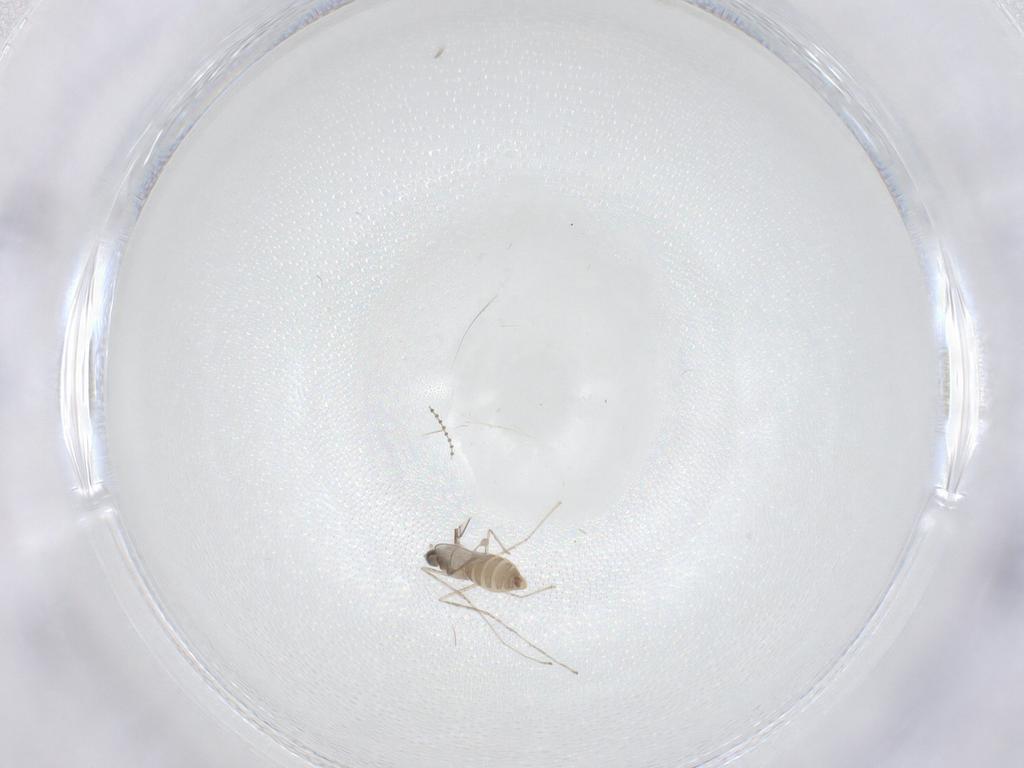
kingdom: Animalia
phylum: Arthropoda
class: Insecta
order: Diptera
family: Cecidomyiidae
